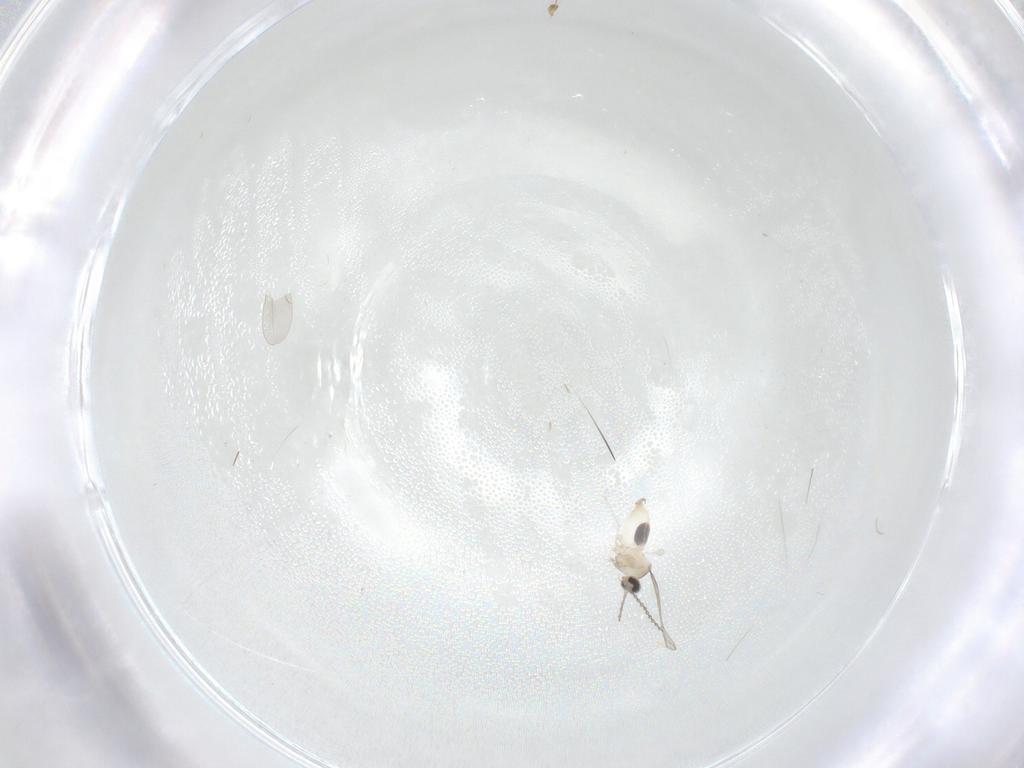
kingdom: Animalia
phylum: Arthropoda
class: Insecta
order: Diptera
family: Cecidomyiidae
